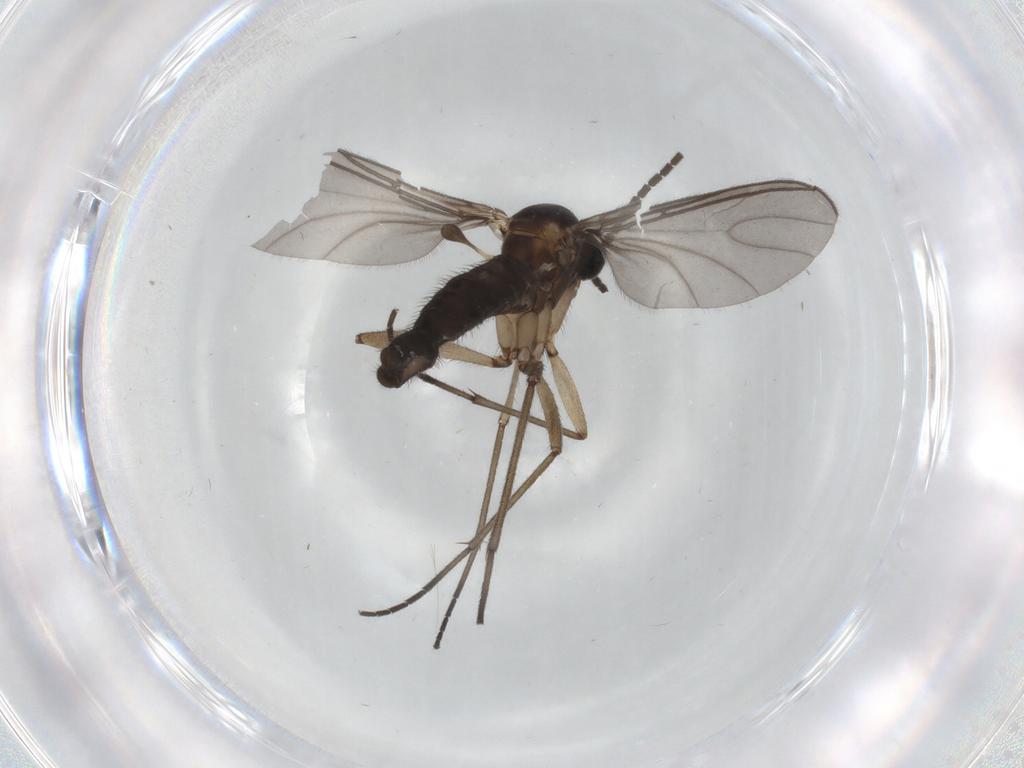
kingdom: Animalia
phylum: Arthropoda
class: Insecta
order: Diptera
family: Sciaridae
